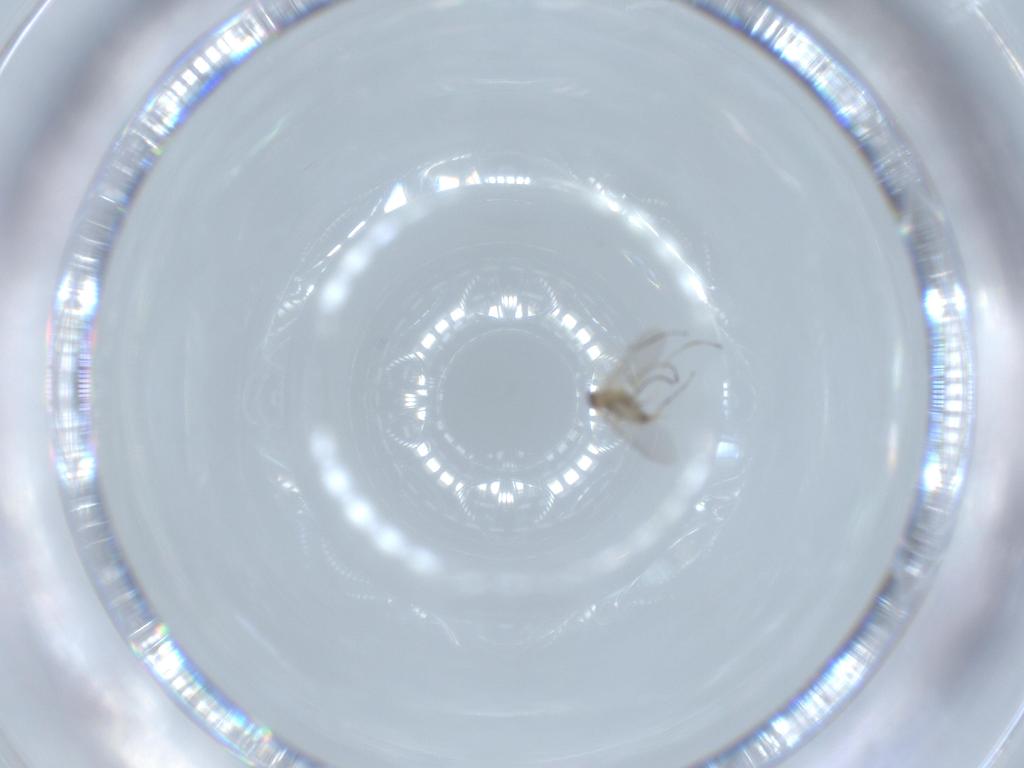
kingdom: Animalia
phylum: Arthropoda
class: Insecta
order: Diptera
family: Cecidomyiidae
